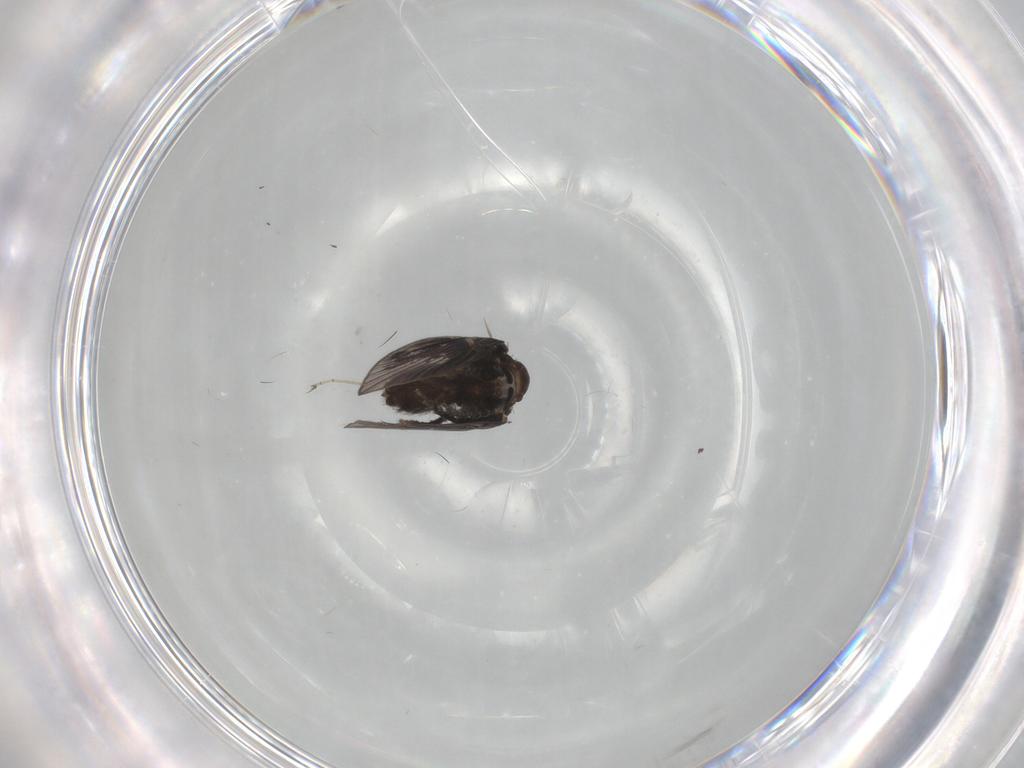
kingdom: Animalia
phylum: Arthropoda
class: Insecta
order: Diptera
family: Psychodidae
